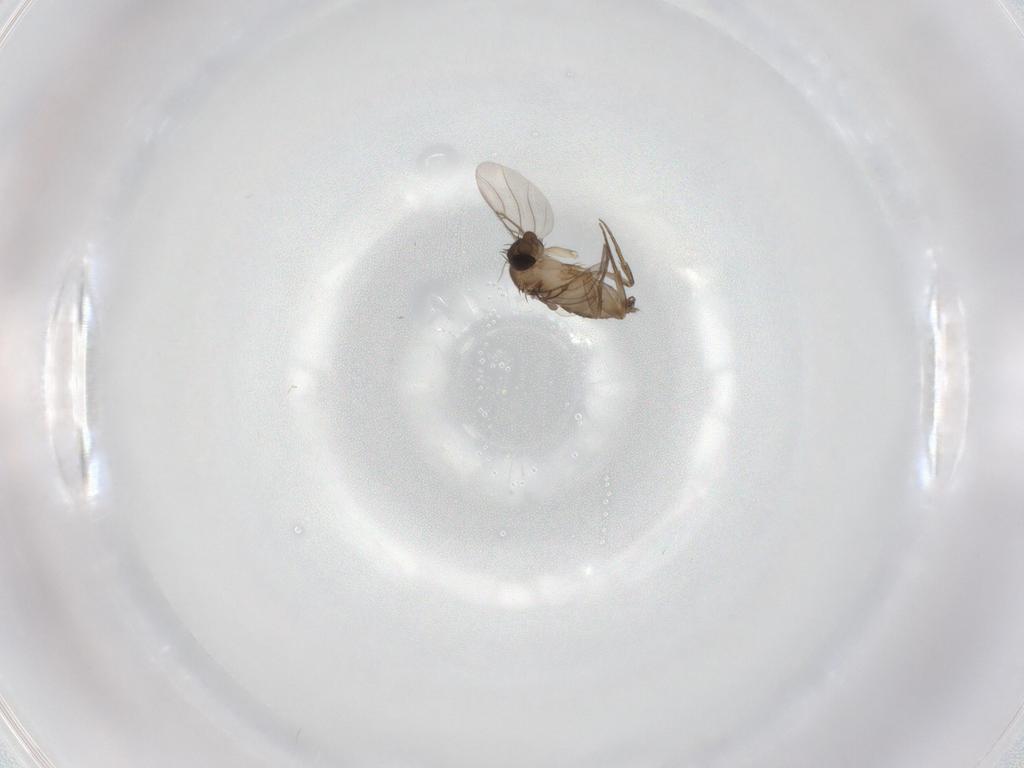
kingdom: Animalia
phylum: Arthropoda
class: Insecta
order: Diptera
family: Phoridae
